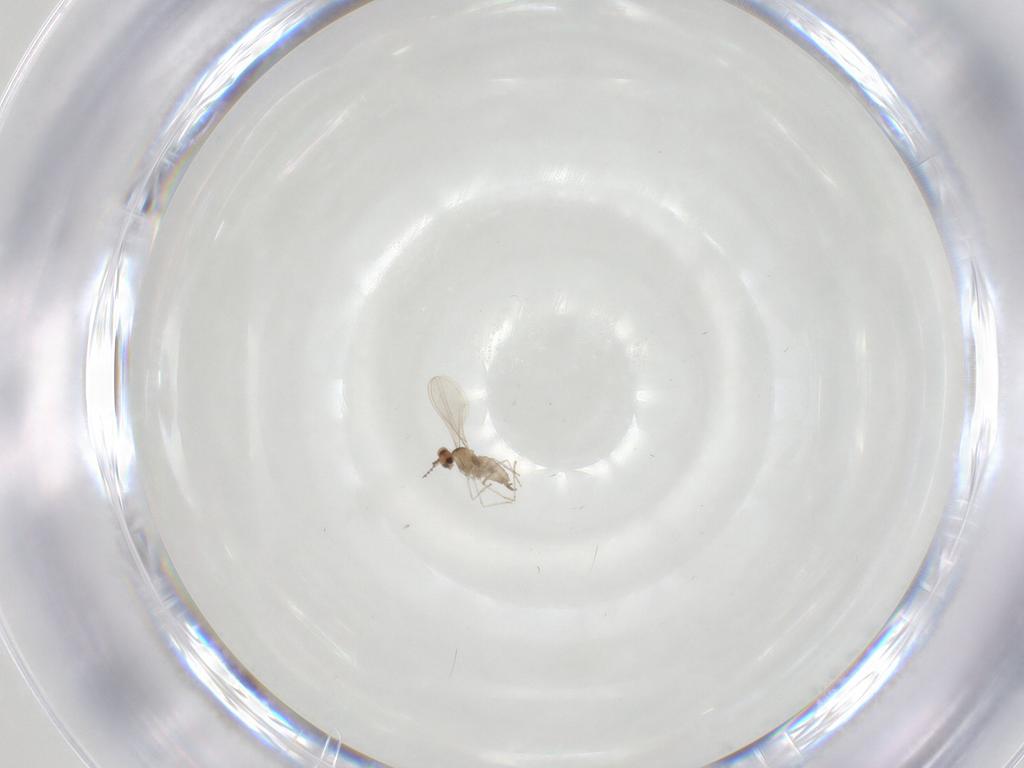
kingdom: Animalia
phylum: Arthropoda
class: Insecta
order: Diptera
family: Cecidomyiidae
